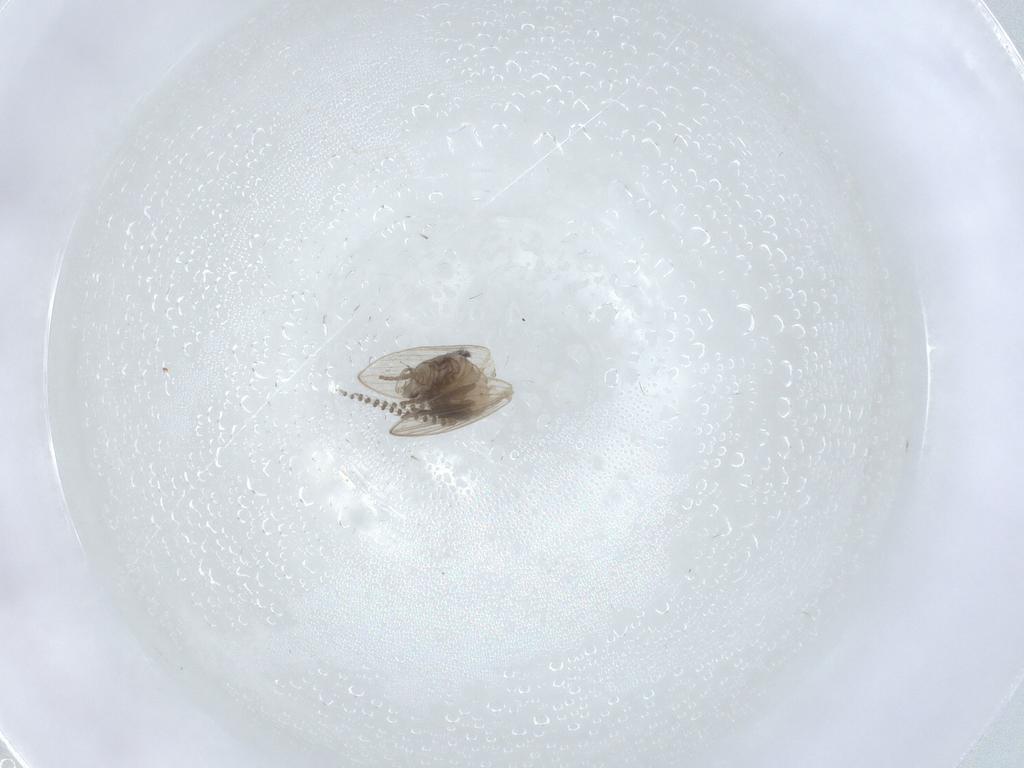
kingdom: Animalia
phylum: Arthropoda
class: Insecta
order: Diptera
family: Psychodidae
